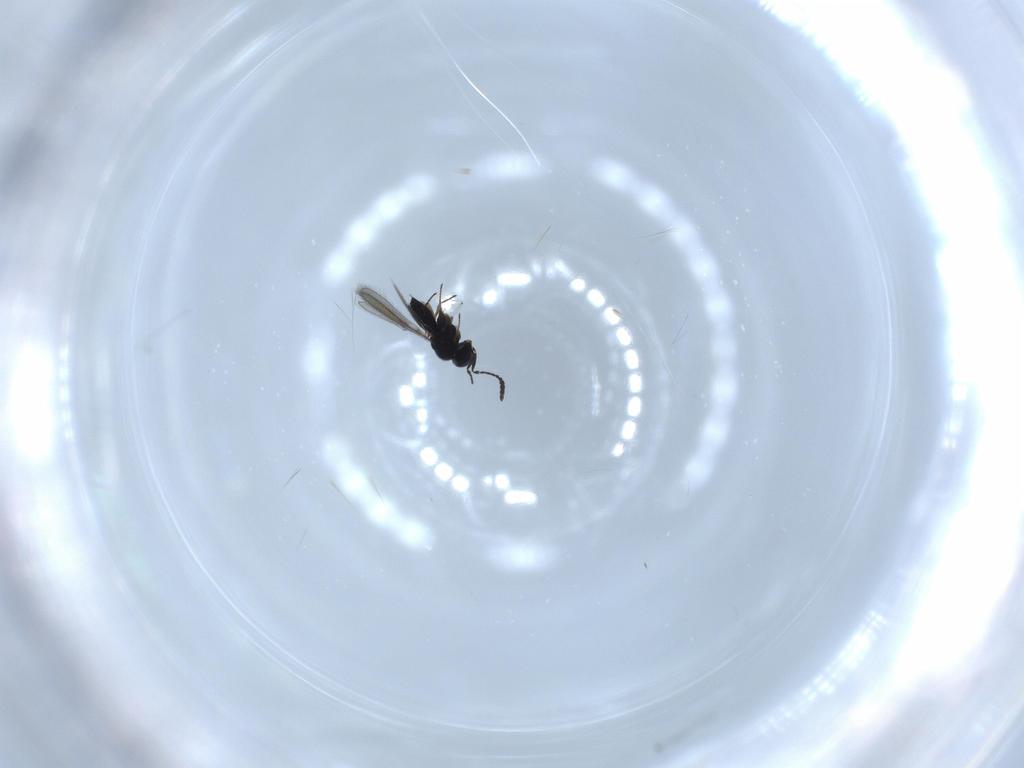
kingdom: Animalia
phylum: Arthropoda
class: Insecta
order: Hymenoptera
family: Scelionidae
